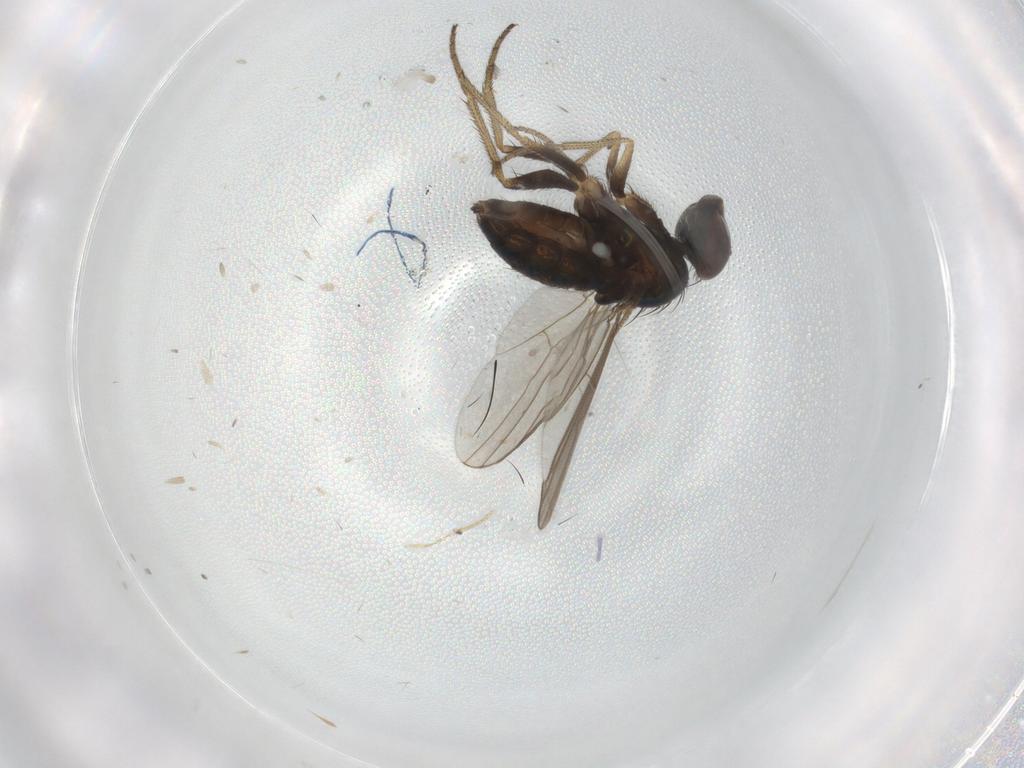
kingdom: Animalia
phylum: Arthropoda
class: Insecta
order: Diptera
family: Sciaridae
